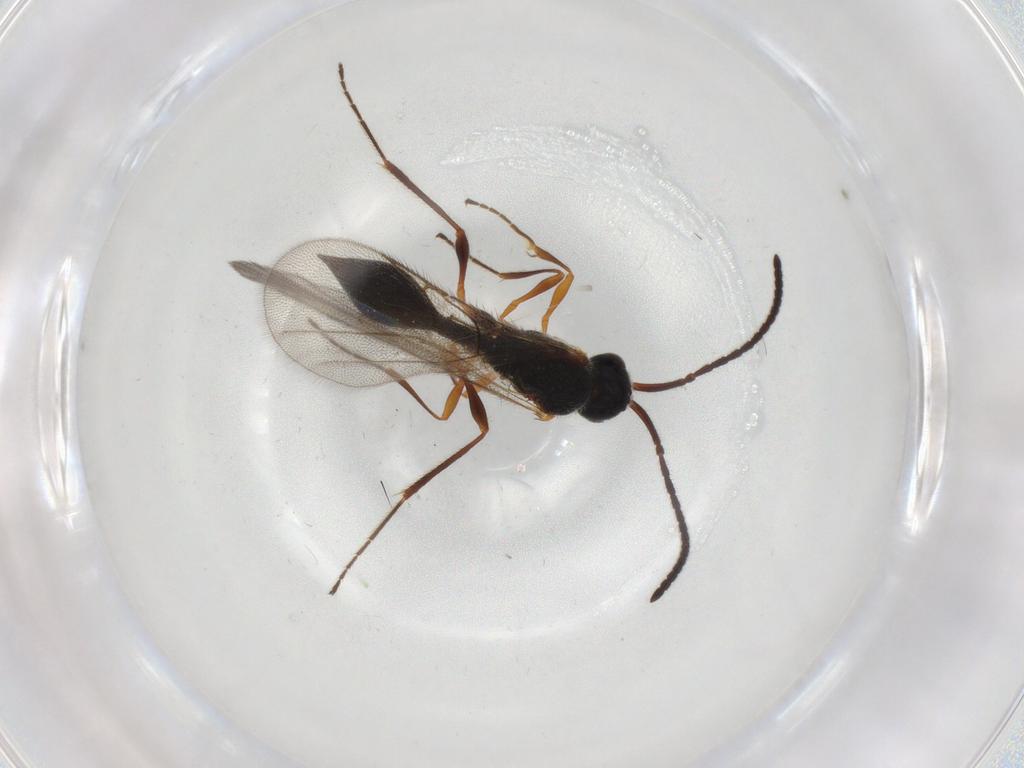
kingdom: Animalia
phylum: Arthropoda
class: Insecta
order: Hymenoptera
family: Diapriidae
